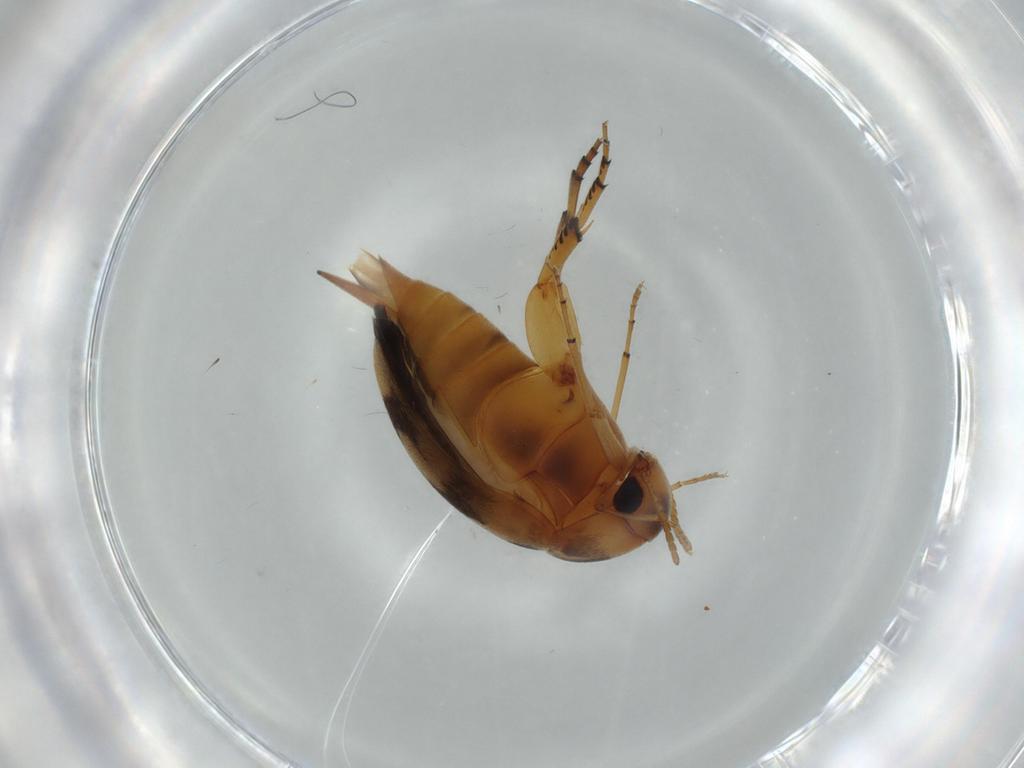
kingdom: Animalia
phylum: Arthropoda
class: Insecta
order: Coleoptera
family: Mordellidae
